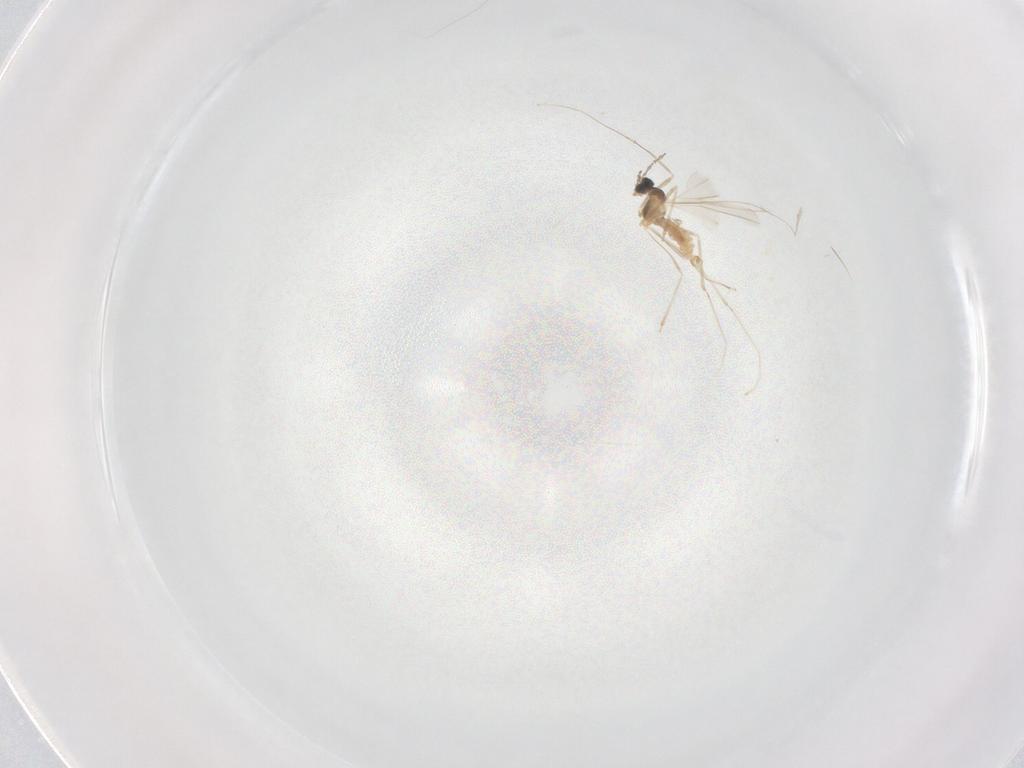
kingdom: Animalia
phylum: Arthropoda
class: Insecta
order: Diptera
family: Cecidomyiidae
